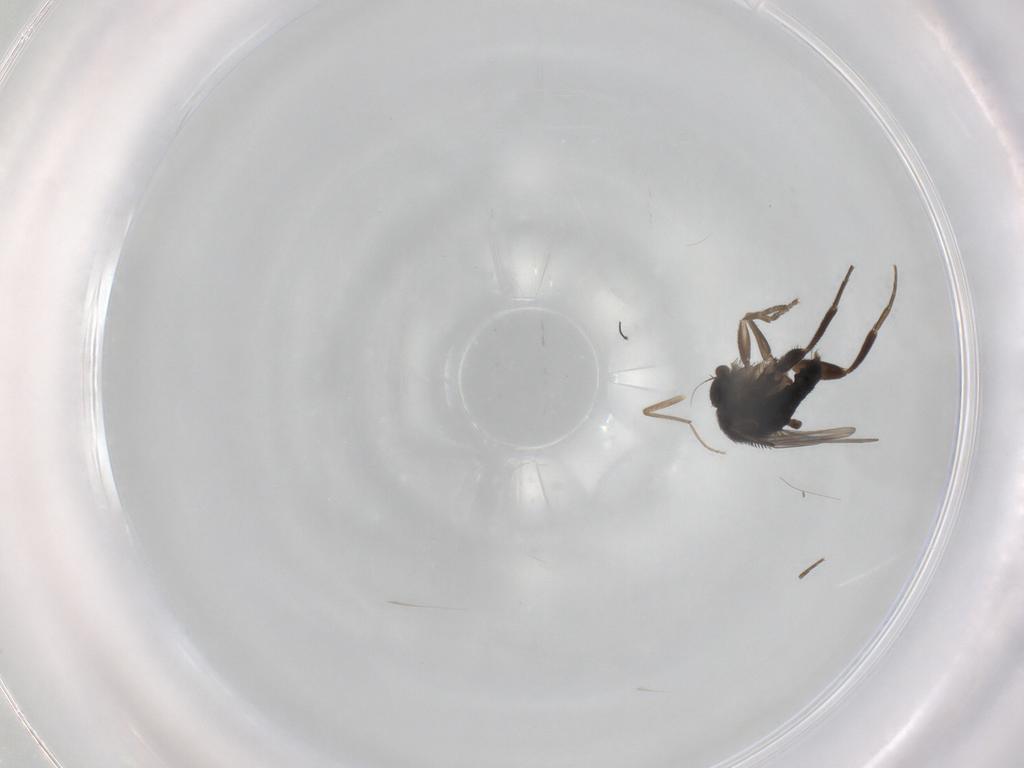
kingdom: Animalia
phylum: Arthropoda
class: Insecta
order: Diptera
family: Phoridae
